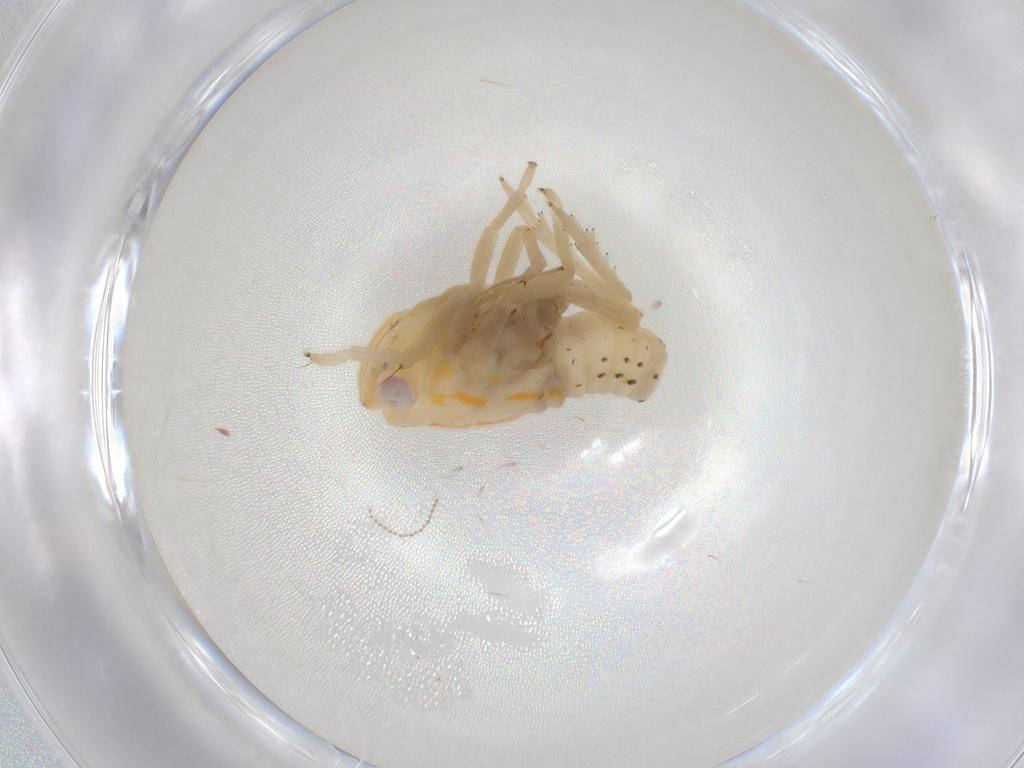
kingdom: Animalia
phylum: Arthropoda
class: Insecta
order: Hemiptera
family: Tropiduchidae
